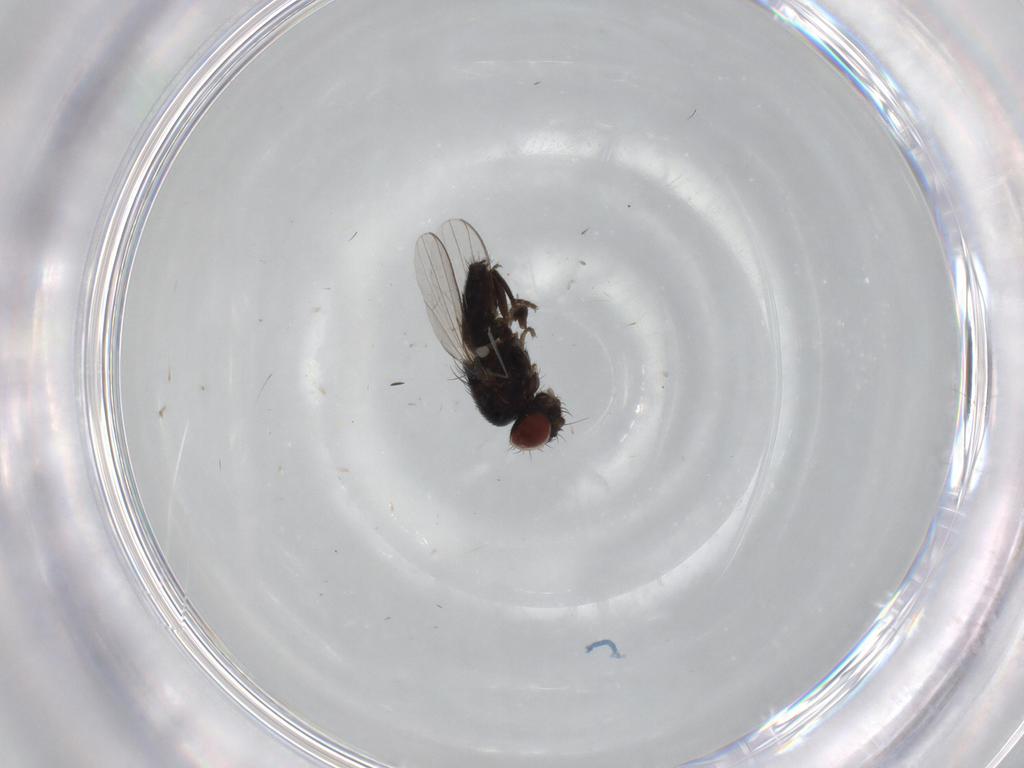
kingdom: Animalia
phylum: Arthropoda
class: Insecta
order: Diptera
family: Milichiidae
